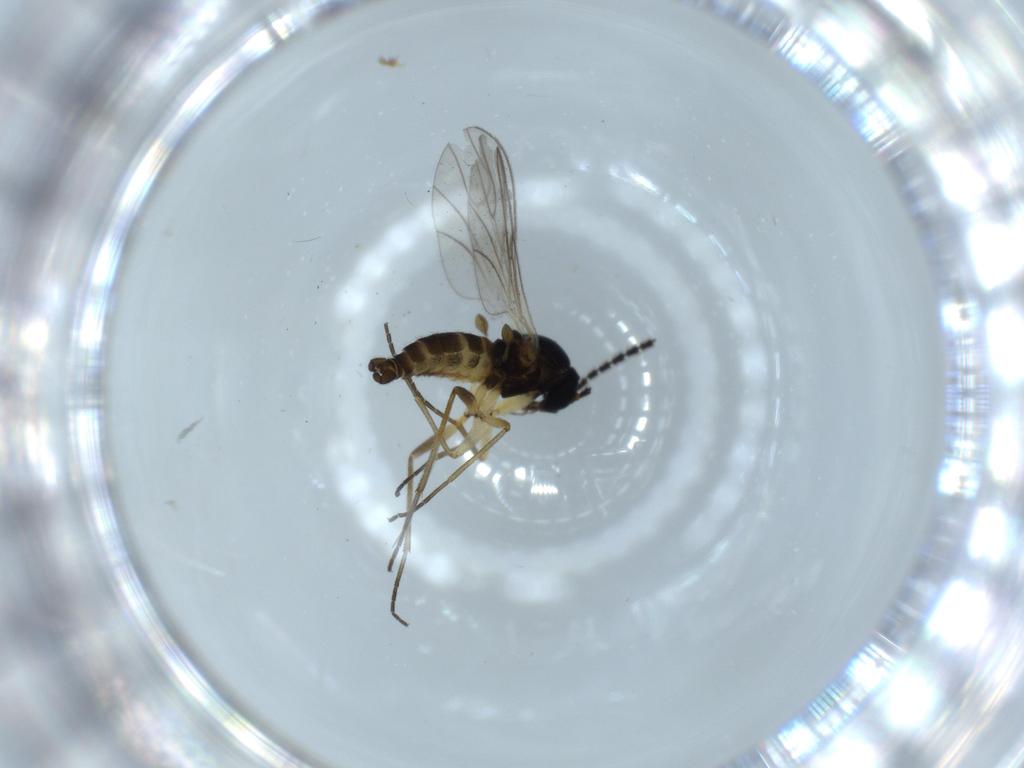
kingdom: Animalia
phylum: Arthropoda
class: Insecta
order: Diptera
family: Sciaridae
